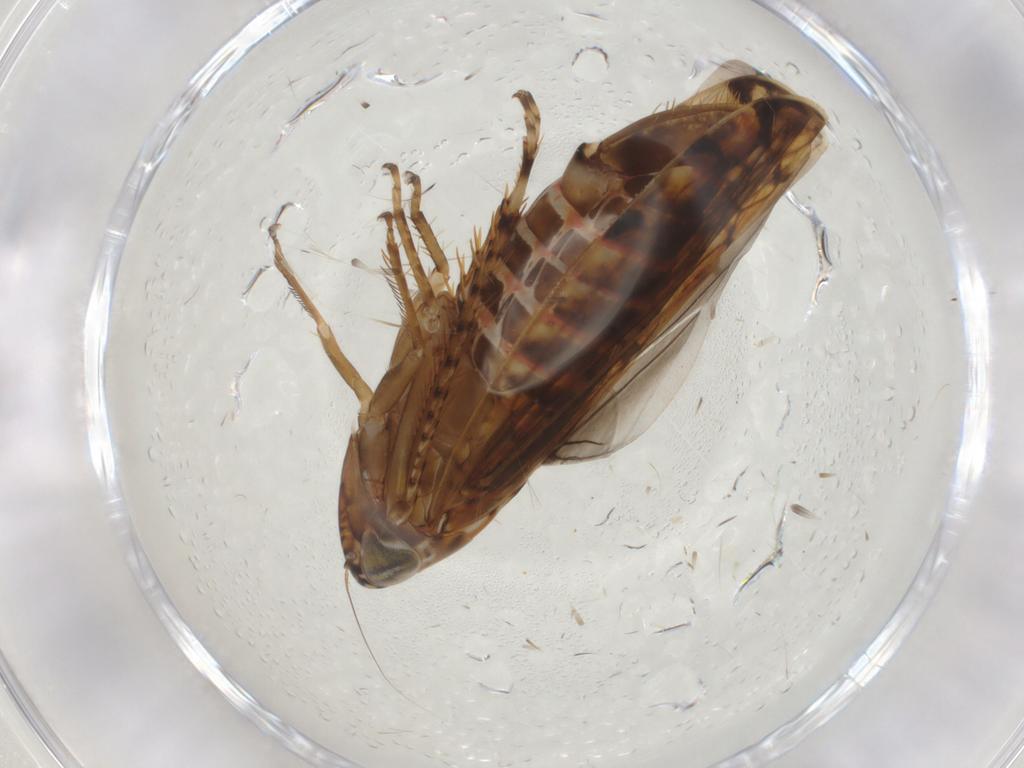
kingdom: Animalia
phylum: Arthropoda
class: Insecta
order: Hemiptera
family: Cicadellidae
